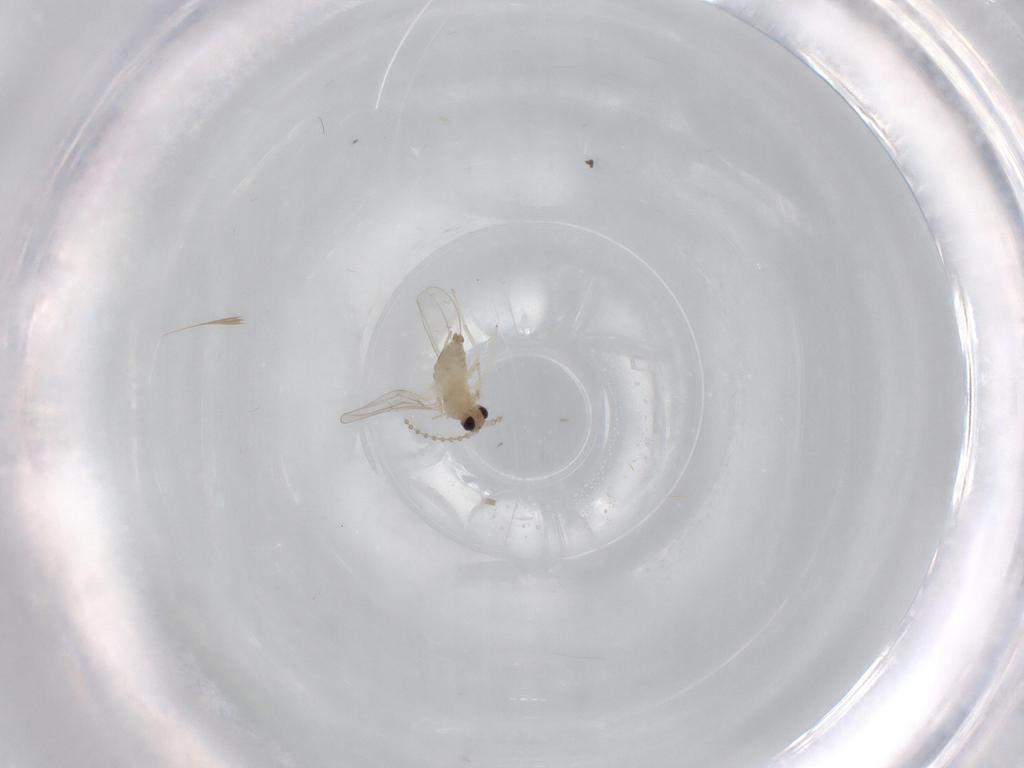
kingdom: Animalia
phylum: Arthropoda
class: Insecta
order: Diptera
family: Cecidomyiidae
